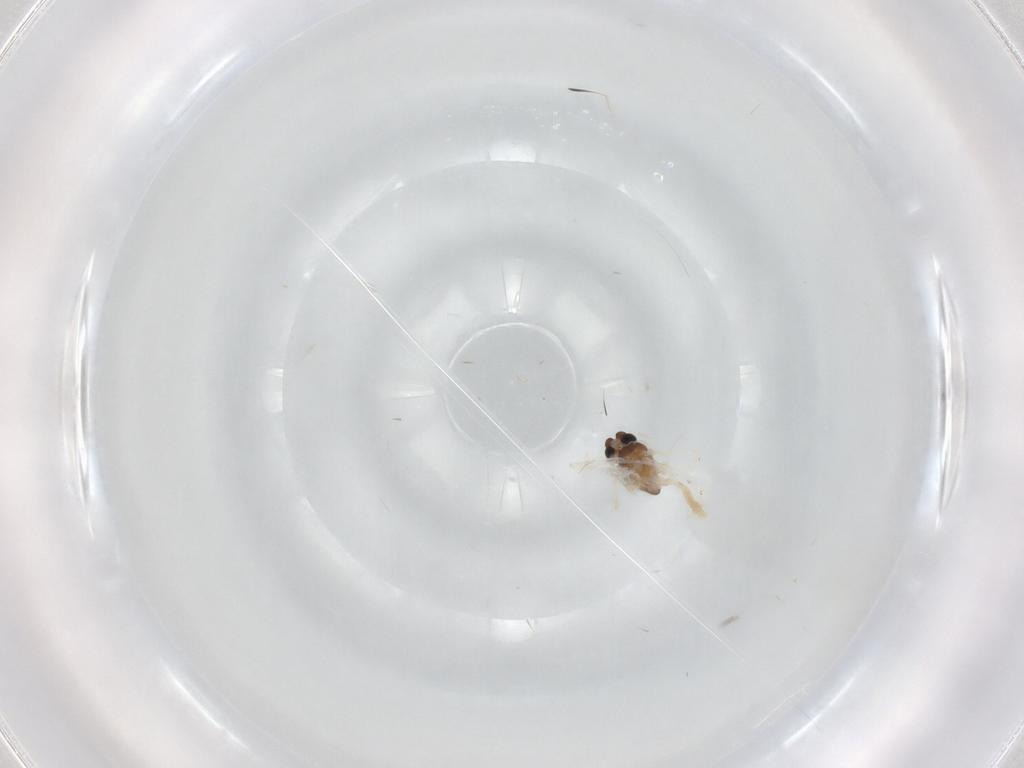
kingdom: Animalia
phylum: Arthropoda
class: Insecta
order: Diptera
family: Chironomidae
